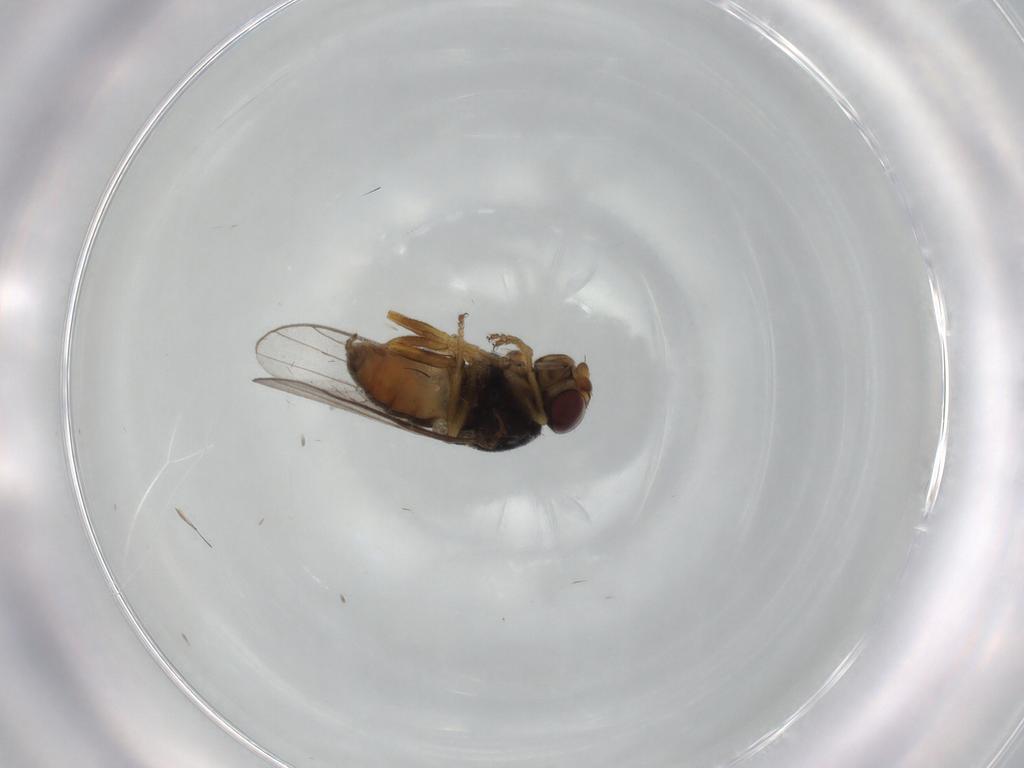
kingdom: Animalia
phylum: Arthropoda
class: Insecta
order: Diptera
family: Chloropidae
